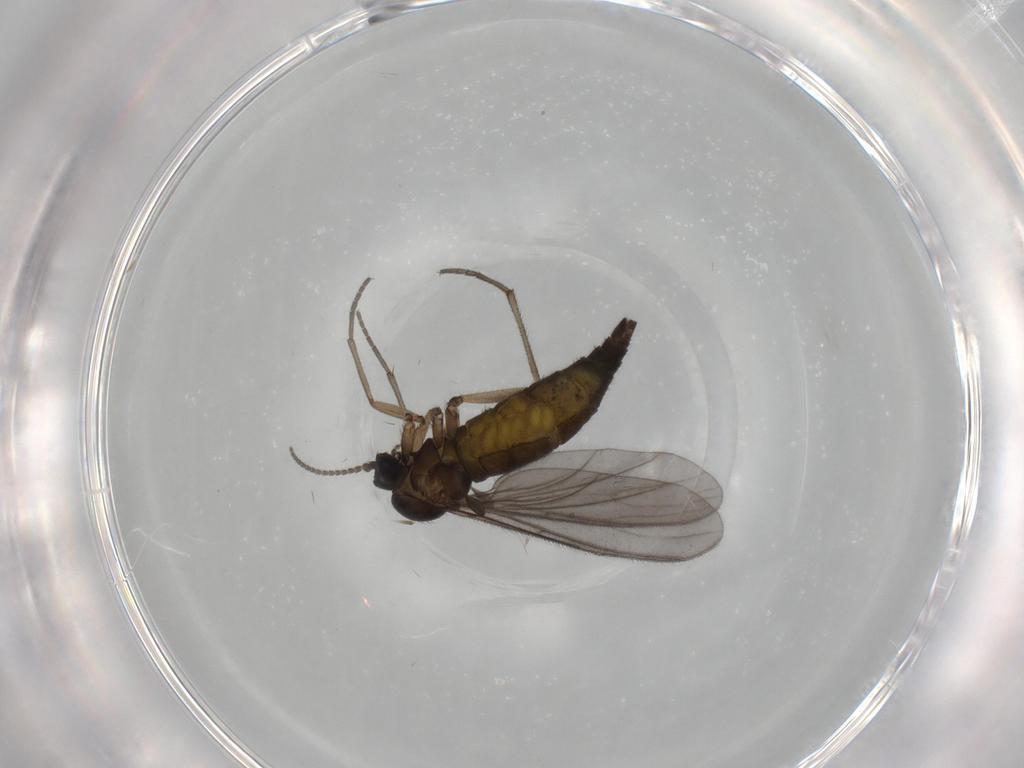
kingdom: Animalia
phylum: Arthropoda
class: Insecta
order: Diptera
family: Sciaridae
